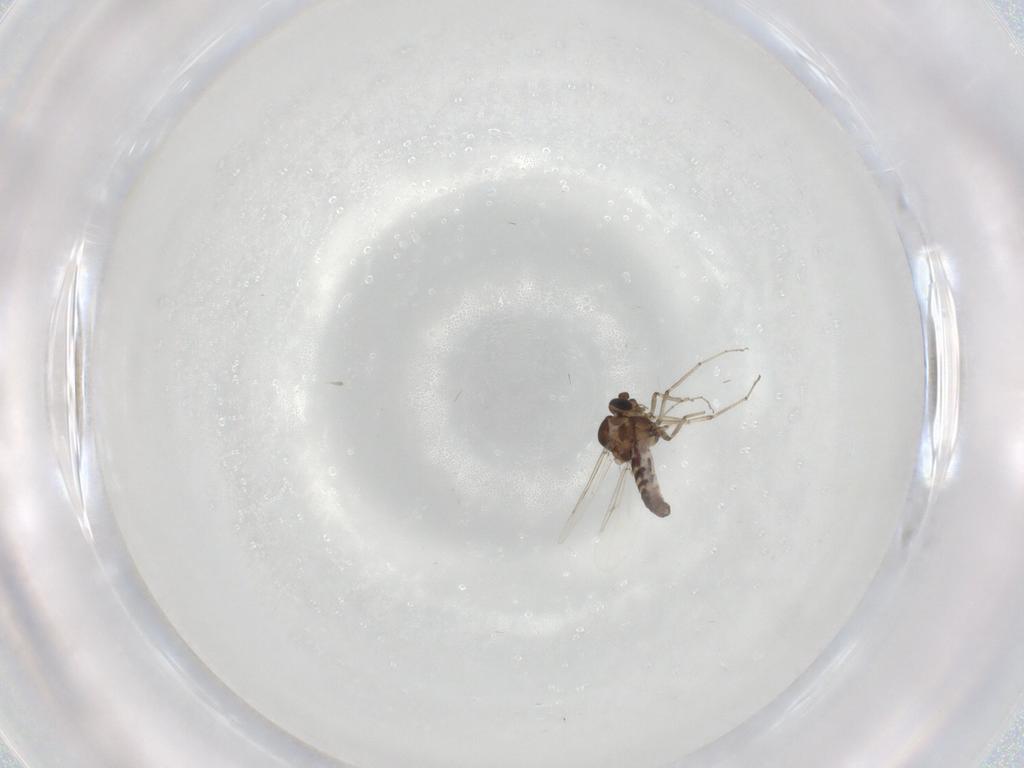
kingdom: Animalia
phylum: Arthropoda
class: Insecta
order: Diptera
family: Ceratopogonidae
